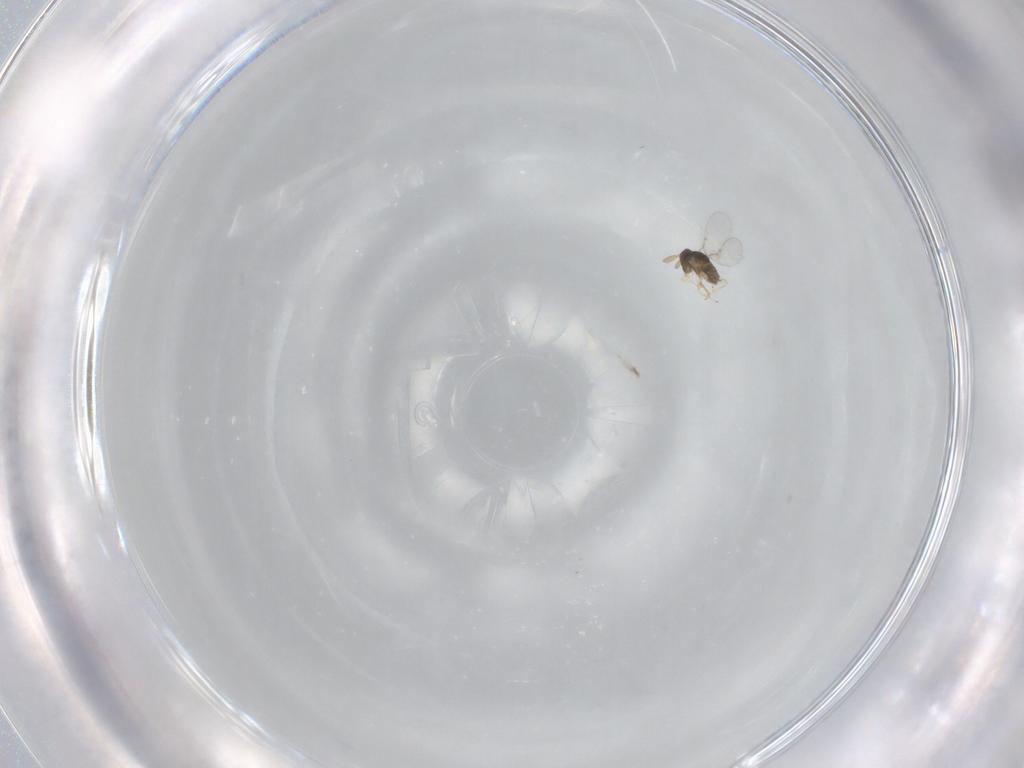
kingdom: Animalia
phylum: Arthropoda
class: Insecta
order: Hymenoptera
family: Encyrtidae
